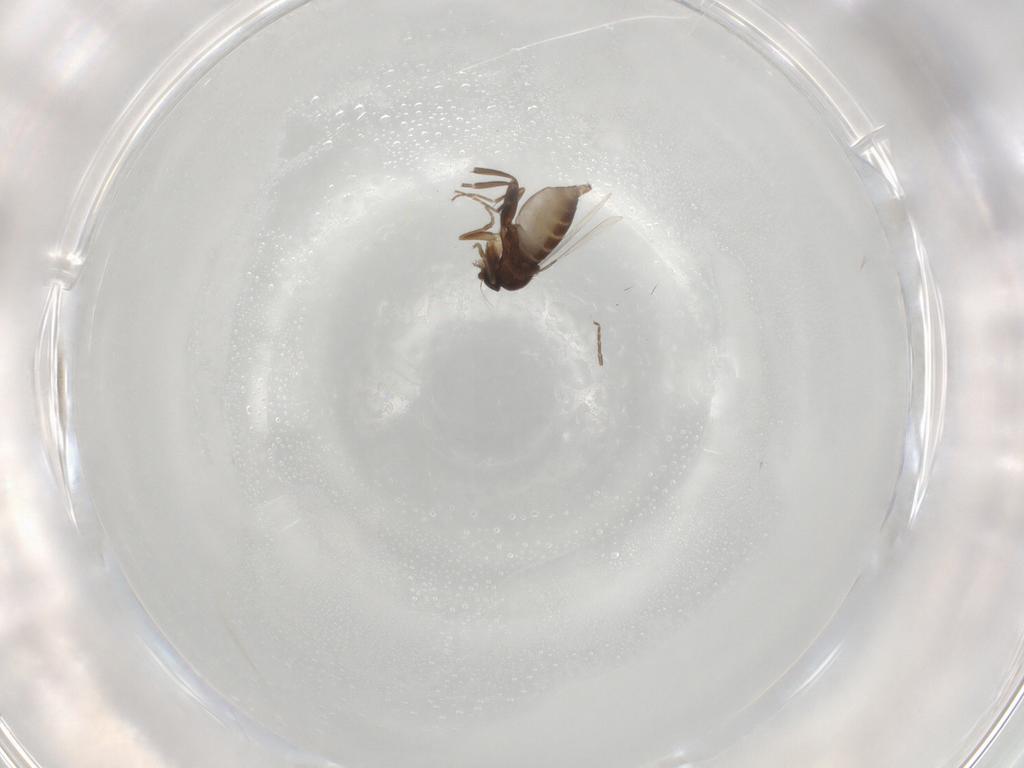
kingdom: Animalia
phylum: Arthropoda
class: Insecta
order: Diptera
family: Phoridae
